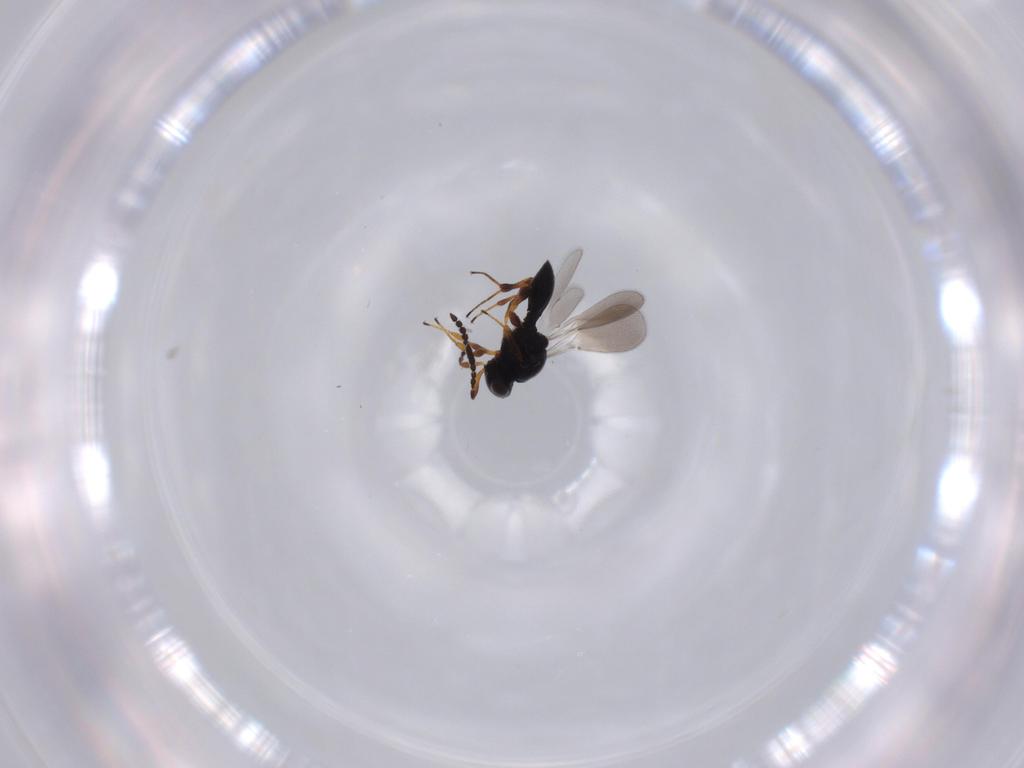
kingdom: Animalia
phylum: Arthropoda
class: Insecta
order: Hymenoptera
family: Platygastridae
